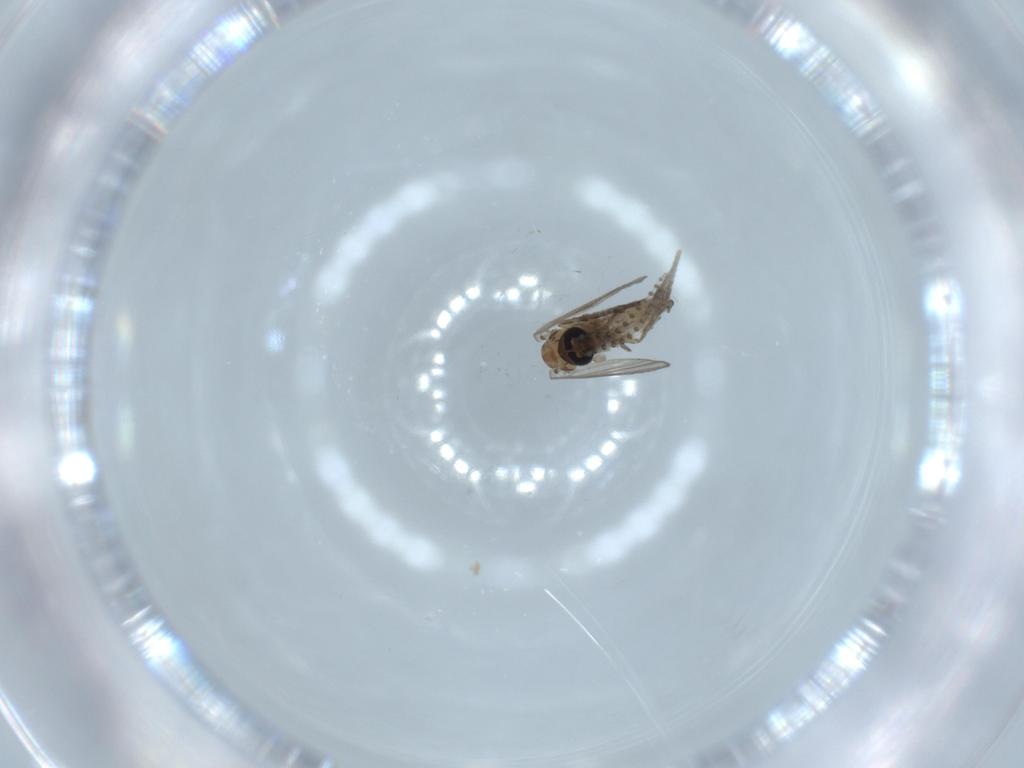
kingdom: Animalia
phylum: Arthropoda
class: Insecta
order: Diptera
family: Psychodidae
